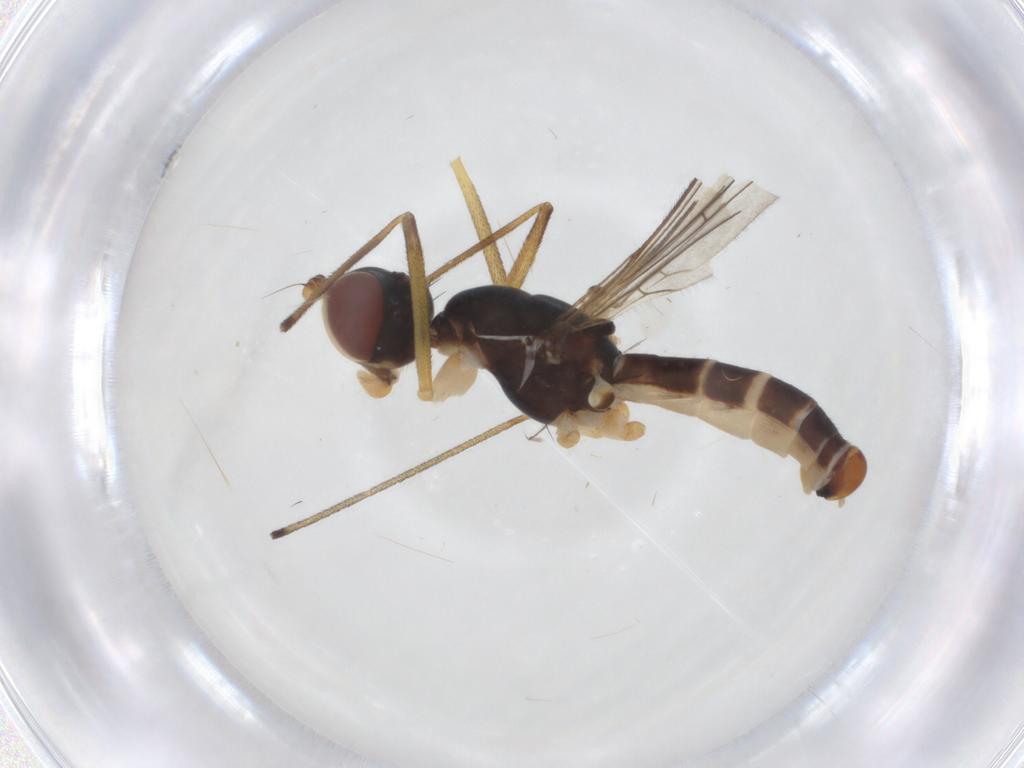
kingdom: Animalia
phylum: Arthropoda
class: Insecta
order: Diptera
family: Micropezidae
